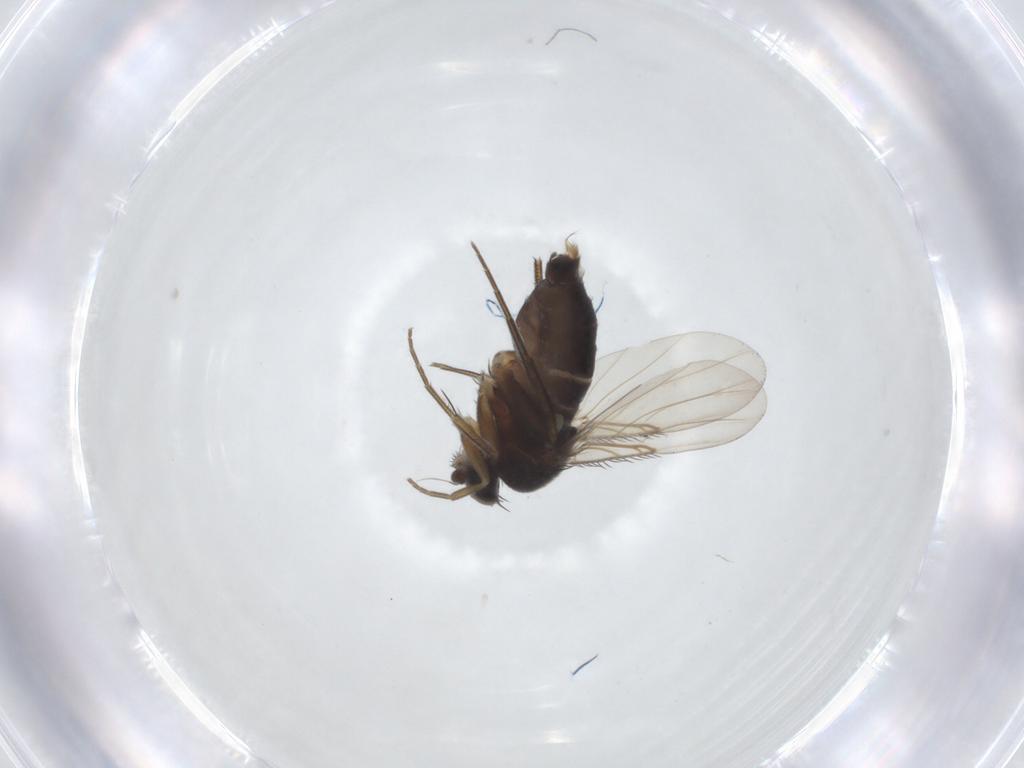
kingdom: Animalia
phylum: Arthropoda
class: Insecta
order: Diptera
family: Phoridae
